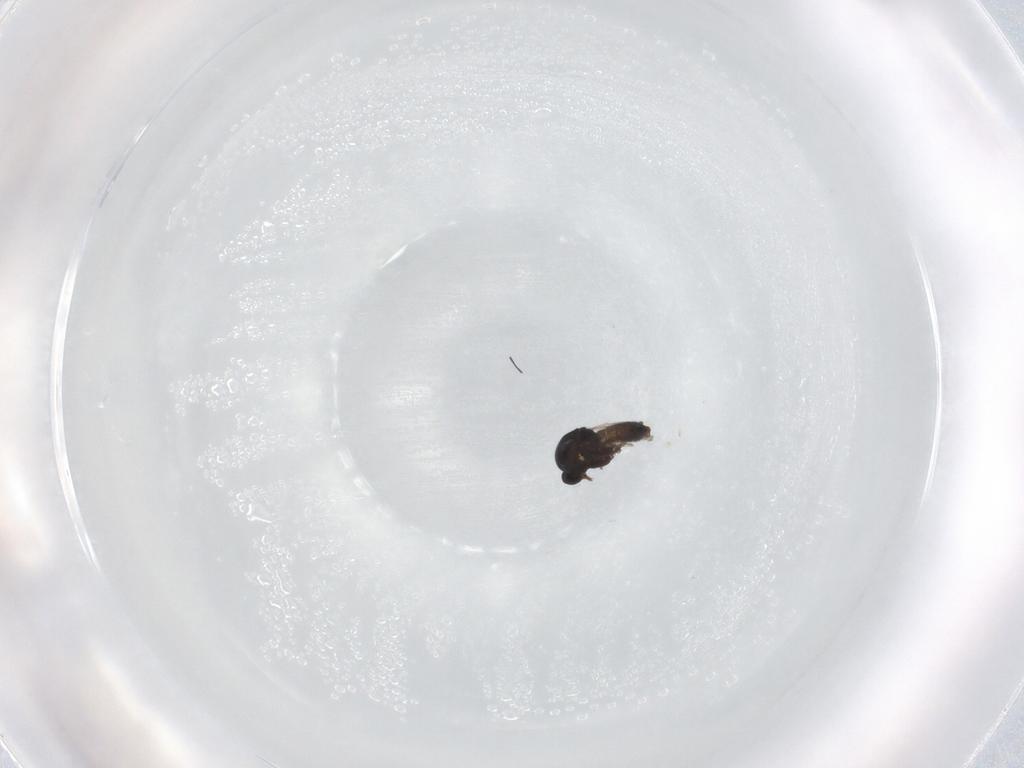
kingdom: Animalia
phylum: Arthropoda
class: Insecta
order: Diptera
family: Ceratopogonidae
